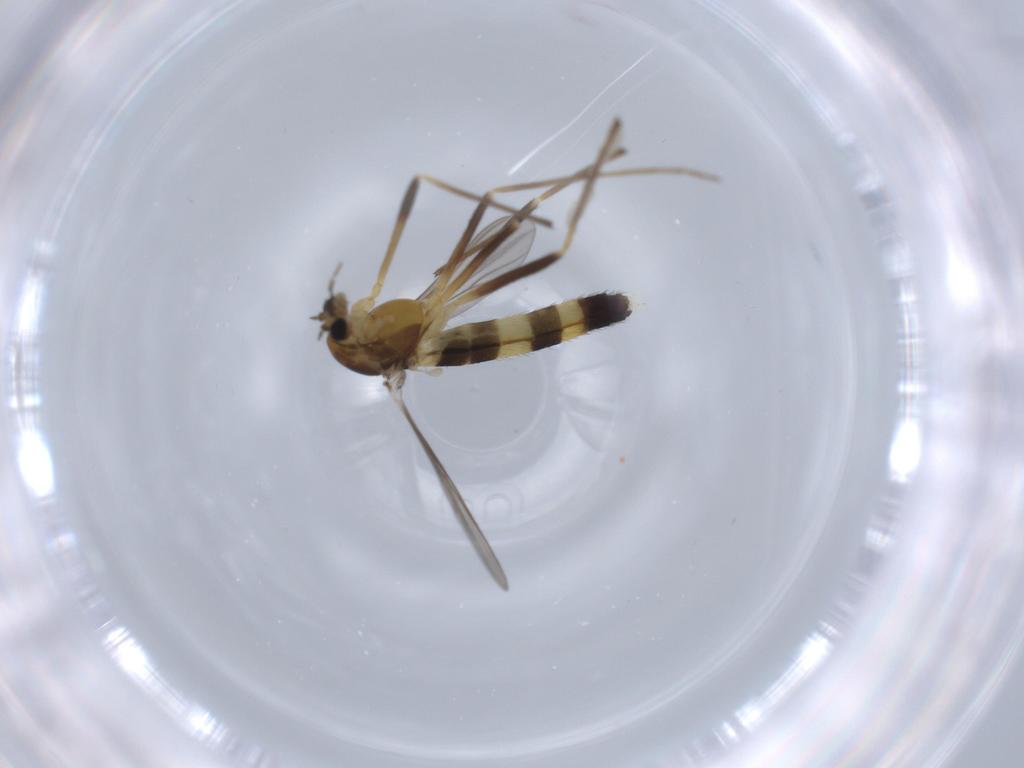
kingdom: Animalia
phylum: Arthropoda
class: Insecta
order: Diptera
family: Chironomidae
